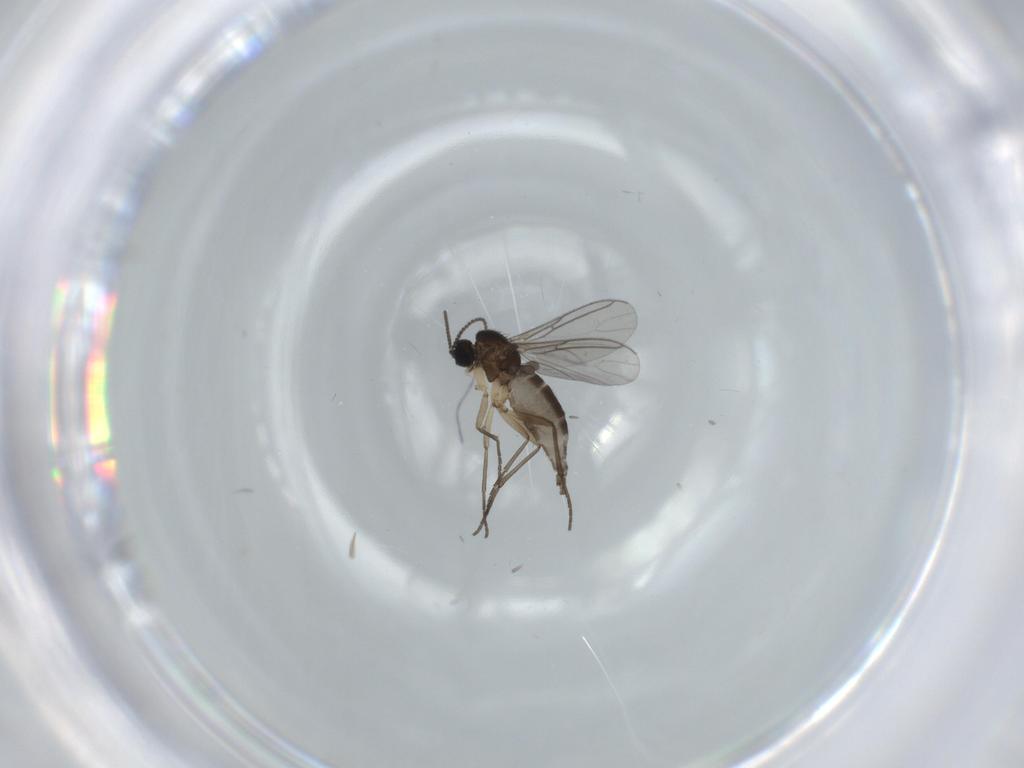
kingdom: Animalia
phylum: Arthropoda
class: Insecta
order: Diptera
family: Sciaridae
